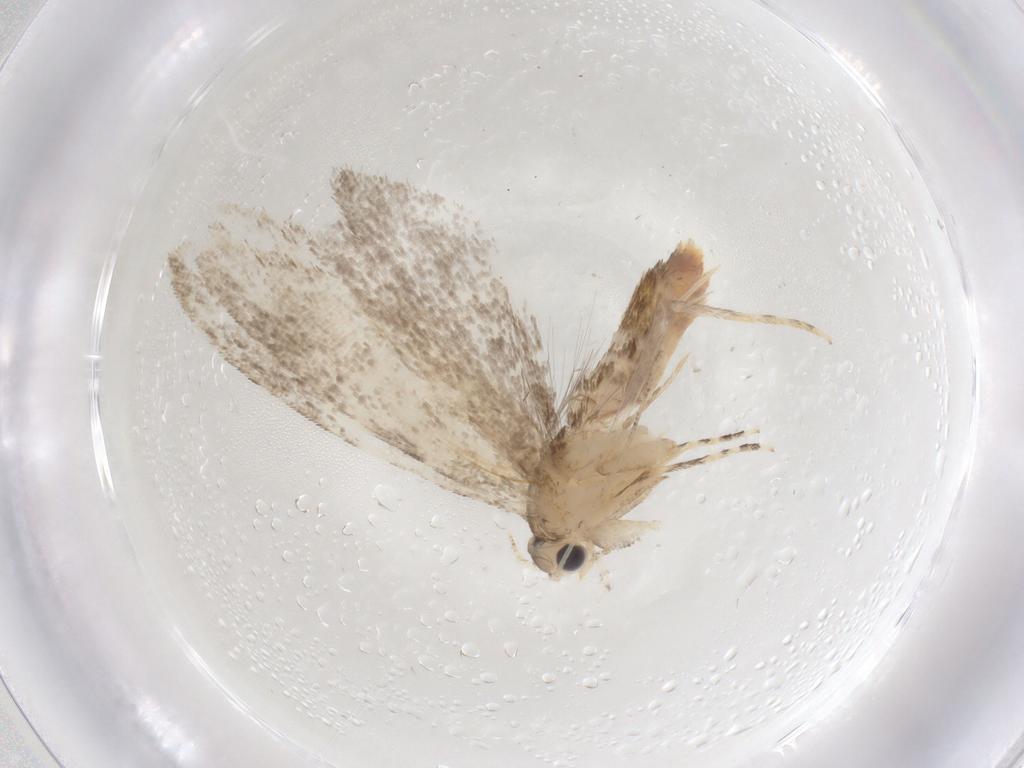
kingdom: Animalia
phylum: Arthropoda
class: Insecta
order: Lepidoptera
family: Tineidae
